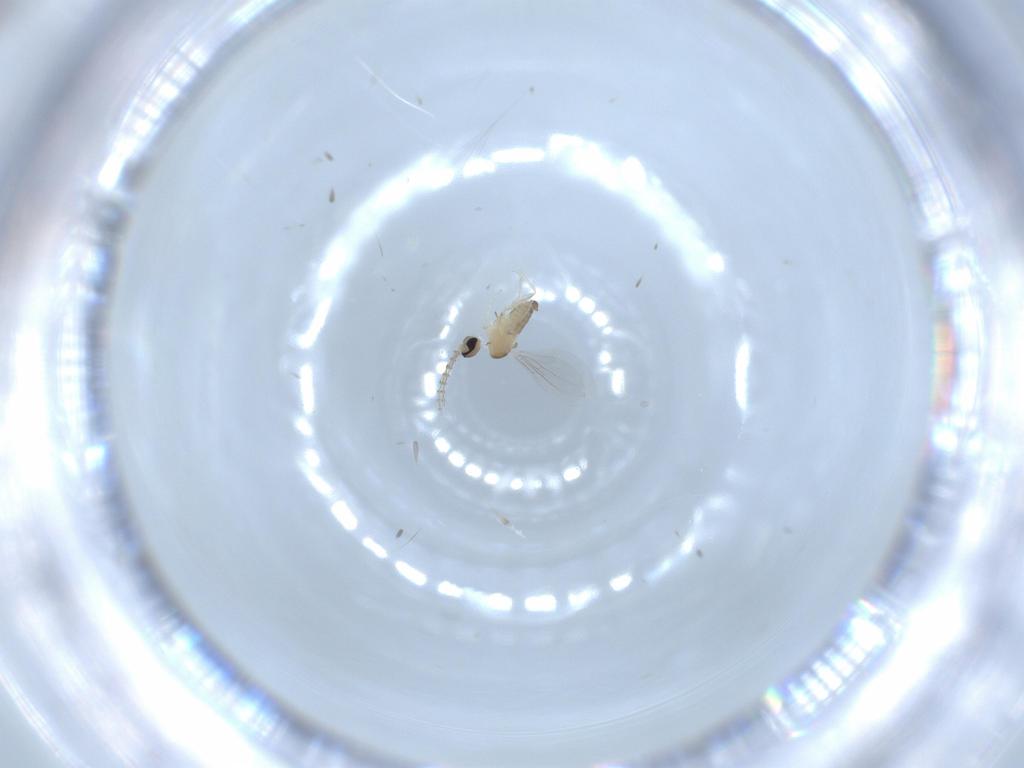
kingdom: Animalia
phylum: Arthropoda
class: Insecta
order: Diptera
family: Cecidomyiidae
